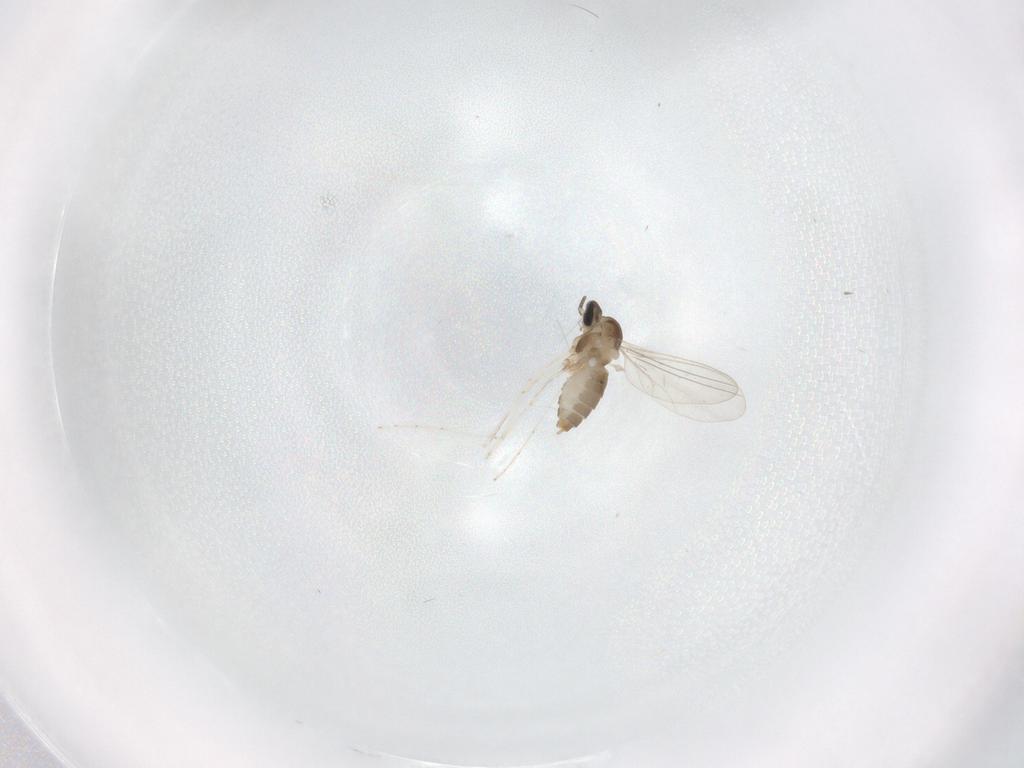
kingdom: Animalia
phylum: Arthropoda
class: Insecta
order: Diptera
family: Cecidomyiidae
